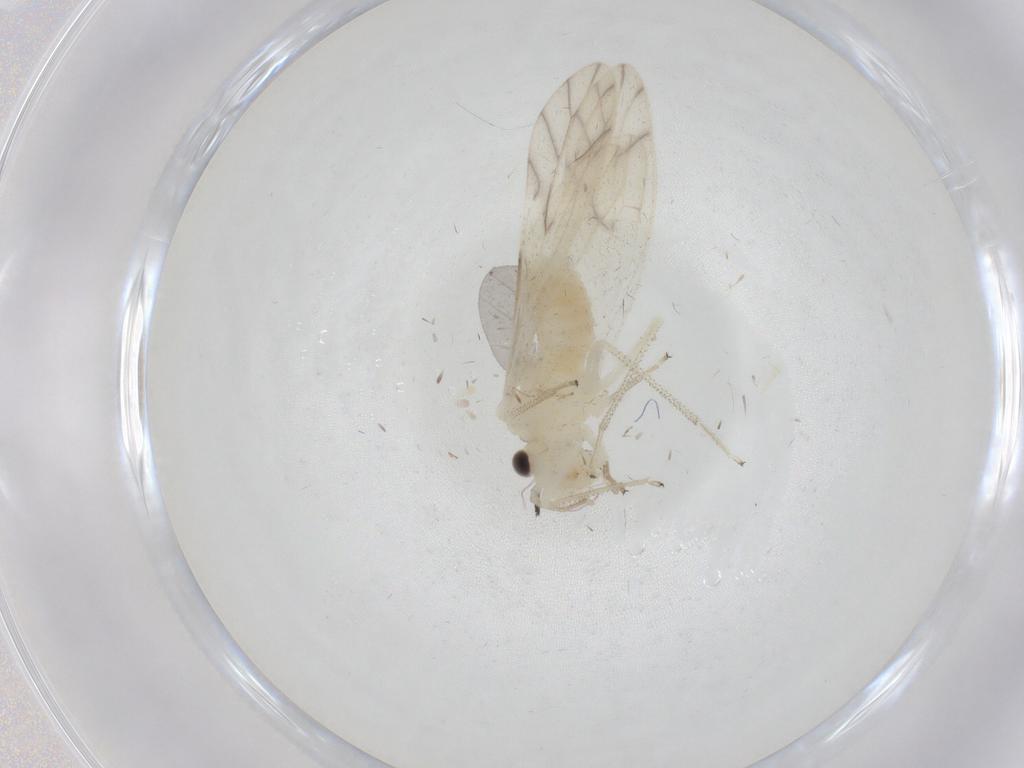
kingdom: Animalia
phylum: Arthropoda
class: Insecta
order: Psocodea
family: Caeciliusidae
